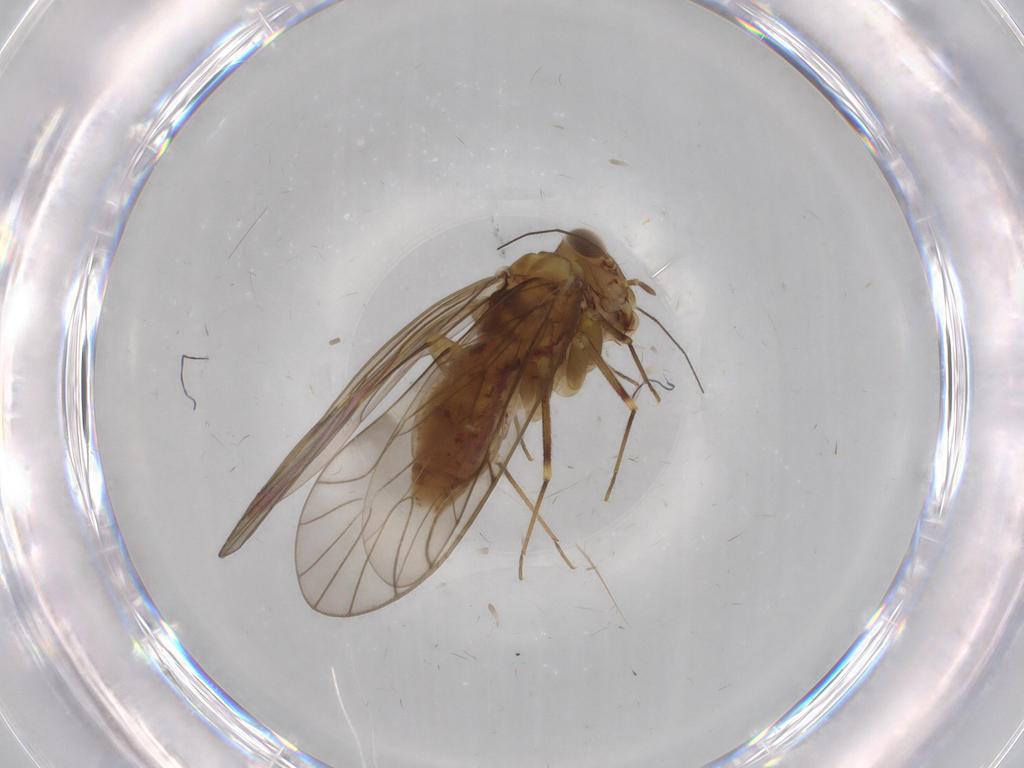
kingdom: Animalia
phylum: Arthropoda
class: Insecta
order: Psocodea
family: Philotarsidae
